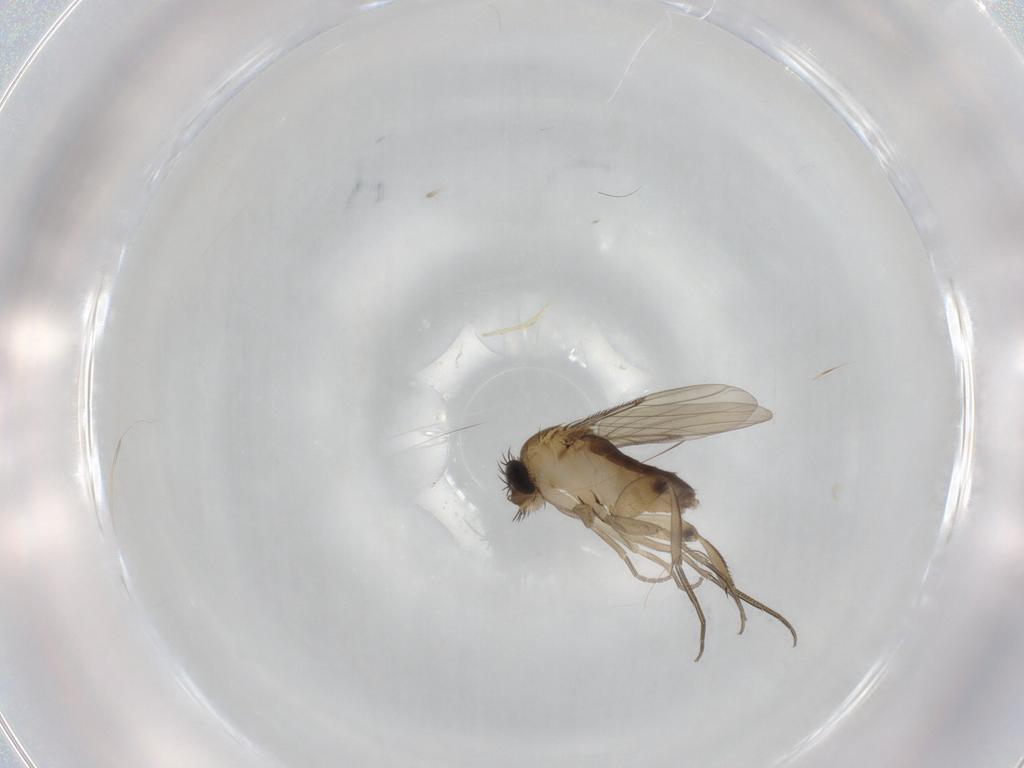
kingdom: Animalia
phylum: Arthropoda
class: Insecta
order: Diptera
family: Phoridae
